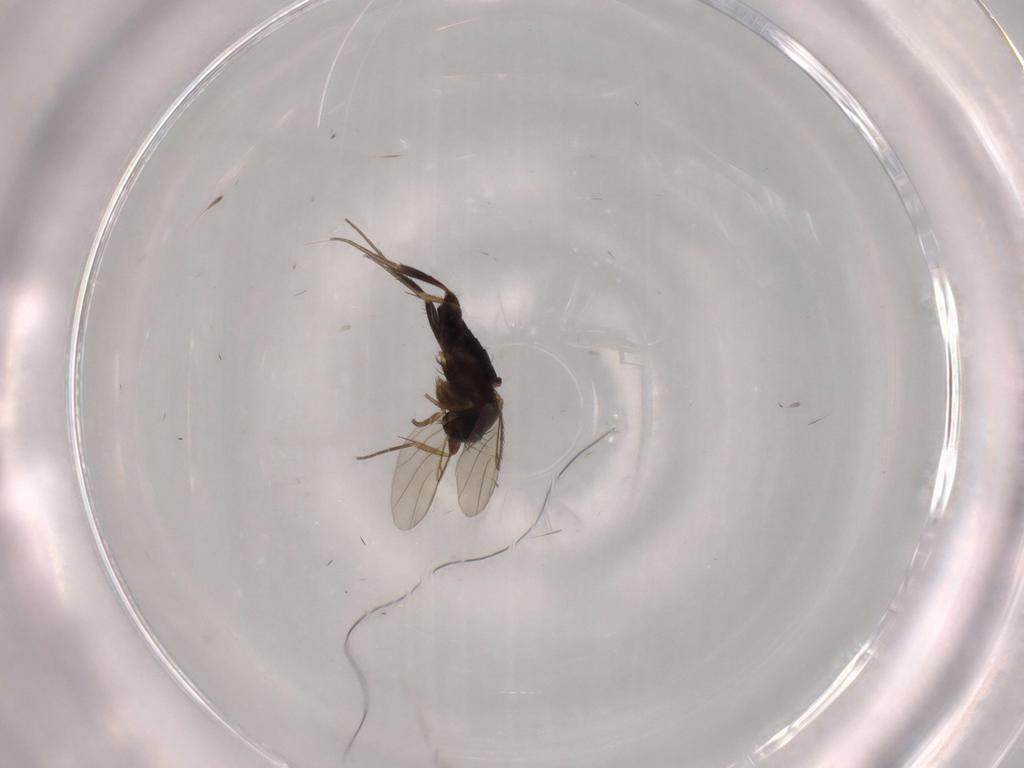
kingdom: Animalia
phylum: Arthropoda
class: Insecta
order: Diptera
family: Phoridae
